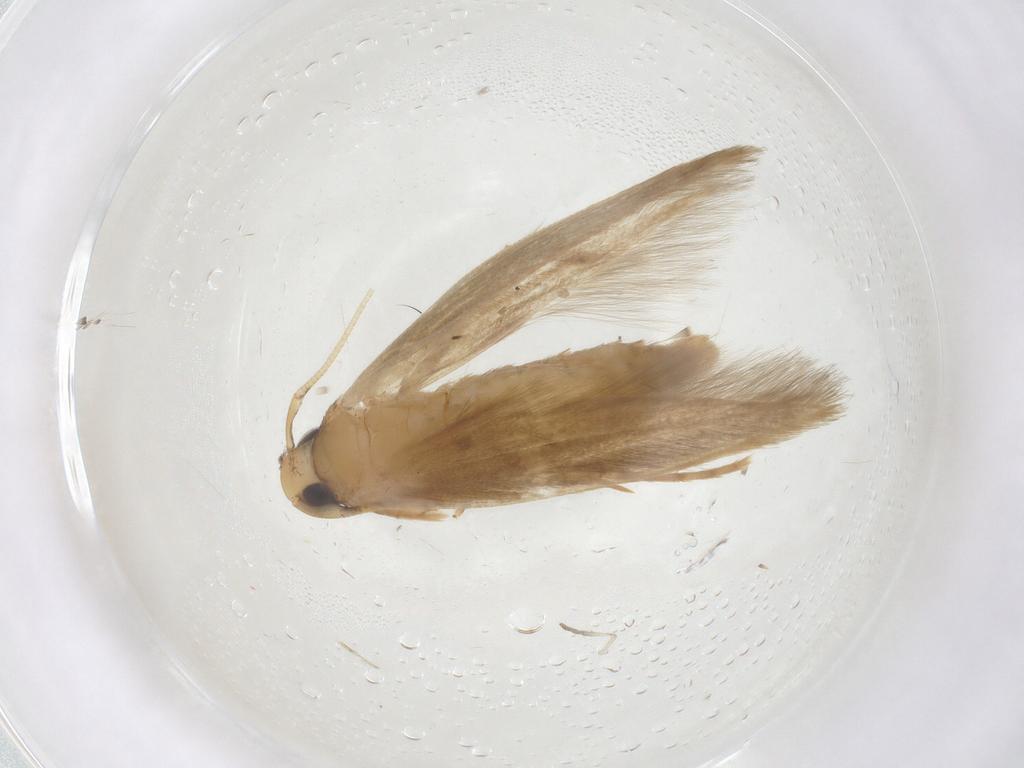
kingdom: Animalia
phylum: Arthropoda
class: Insecta
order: Lepidoptera
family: Tineidae
